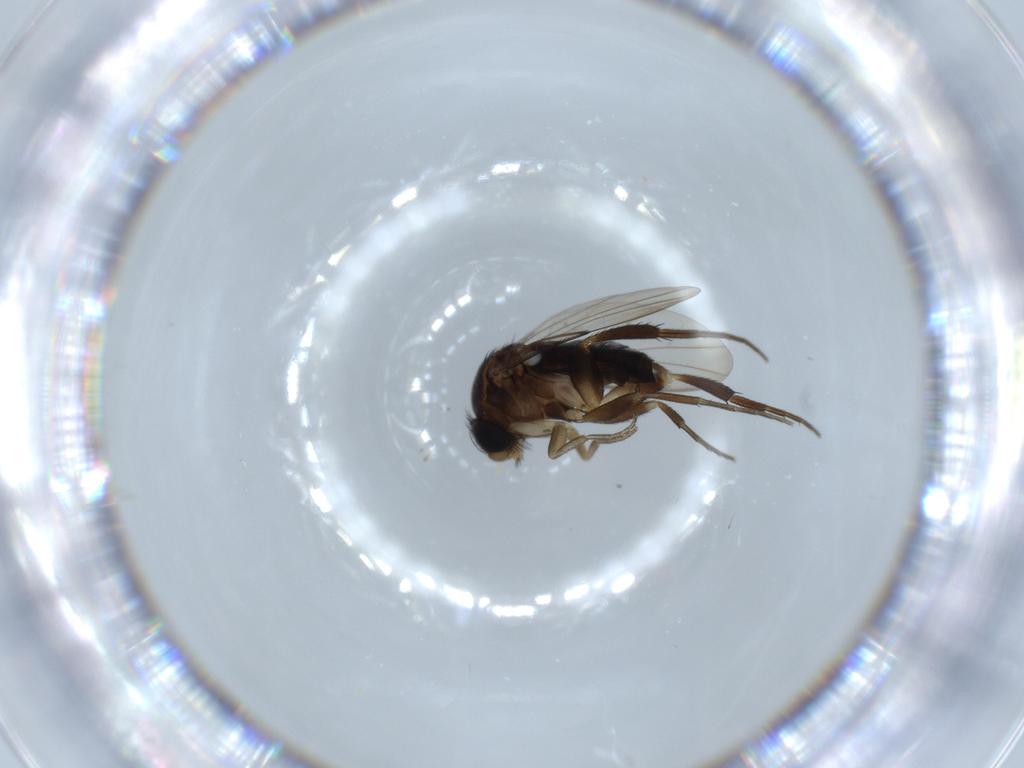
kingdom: Animalia
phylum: Arthropoda
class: Insecta
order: Diptera
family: Phoridae
